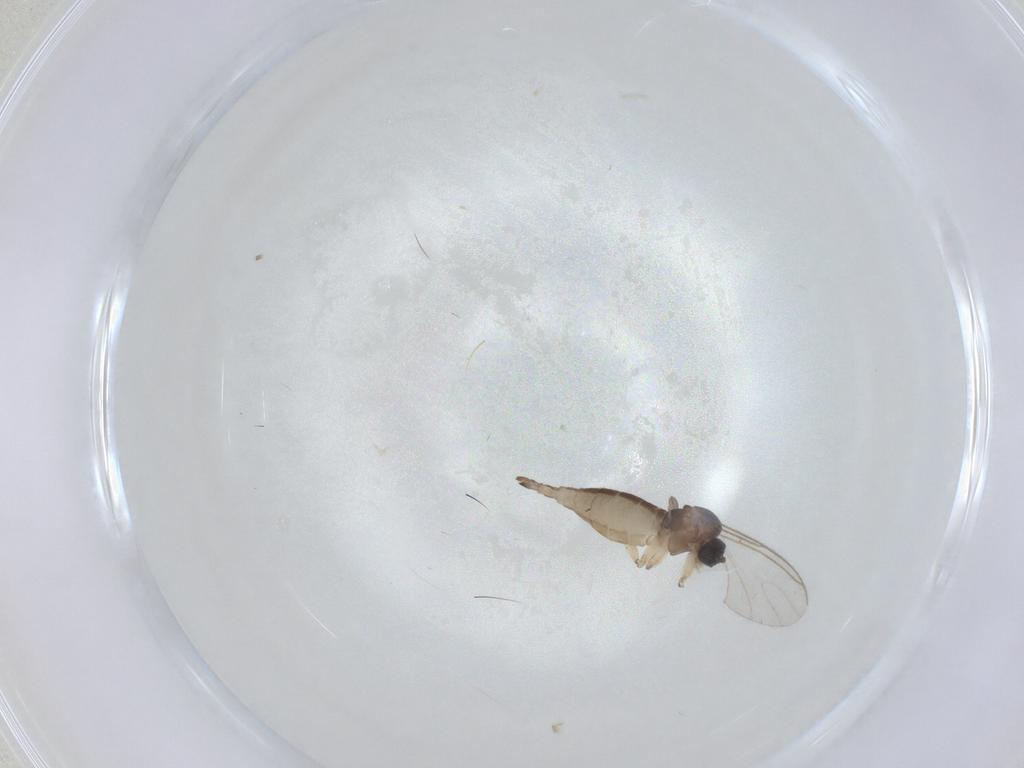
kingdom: Animalia
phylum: Arthropoda
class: Insecta
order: Diptera
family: Sciaridae
